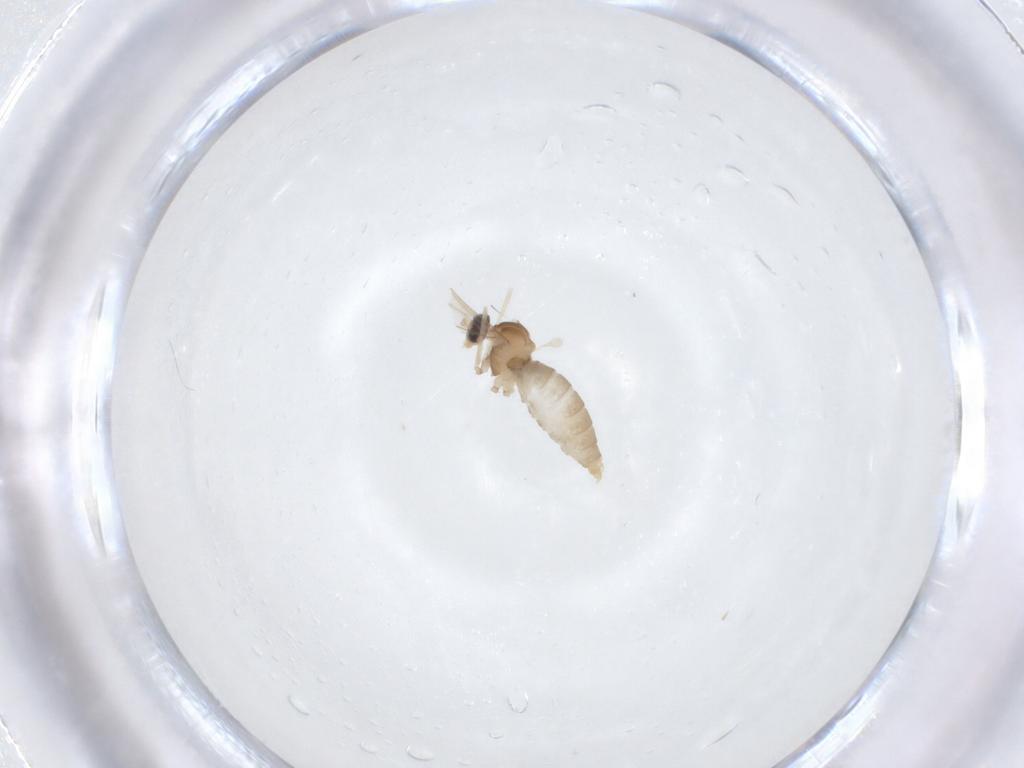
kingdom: Animalia
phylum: Arthropoda
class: Insecta
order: Diptera
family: Cecidomyiidae
